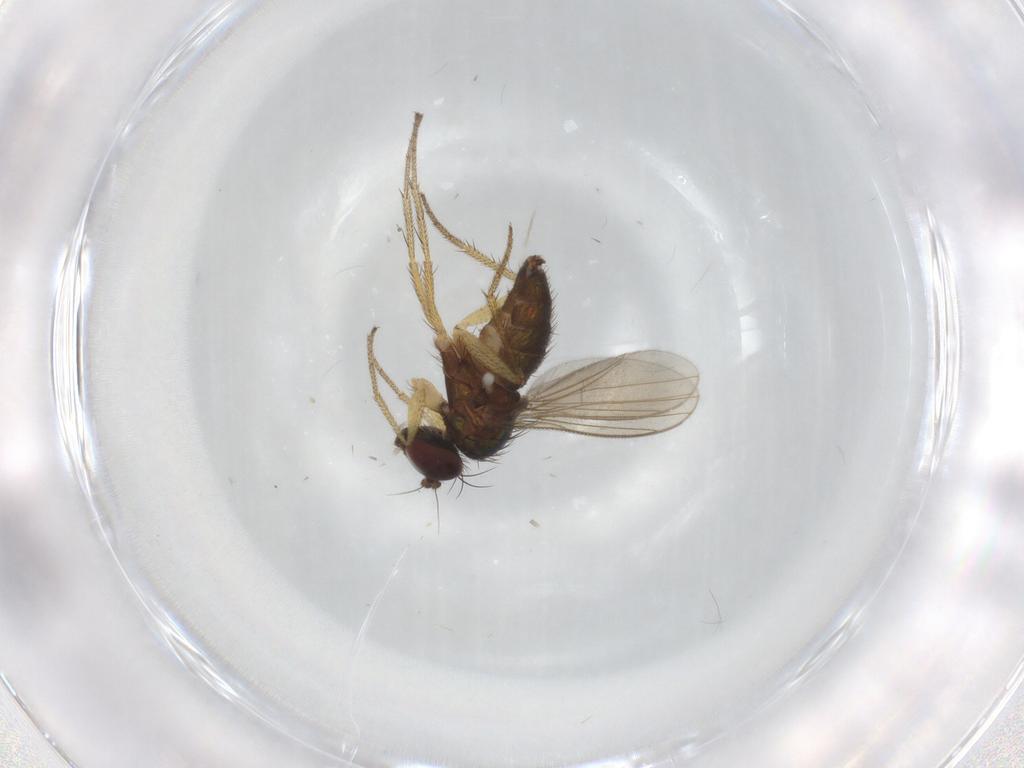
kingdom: Animalia
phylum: Arthropoda
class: Insecta
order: Diptera
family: Dolichopodidae
